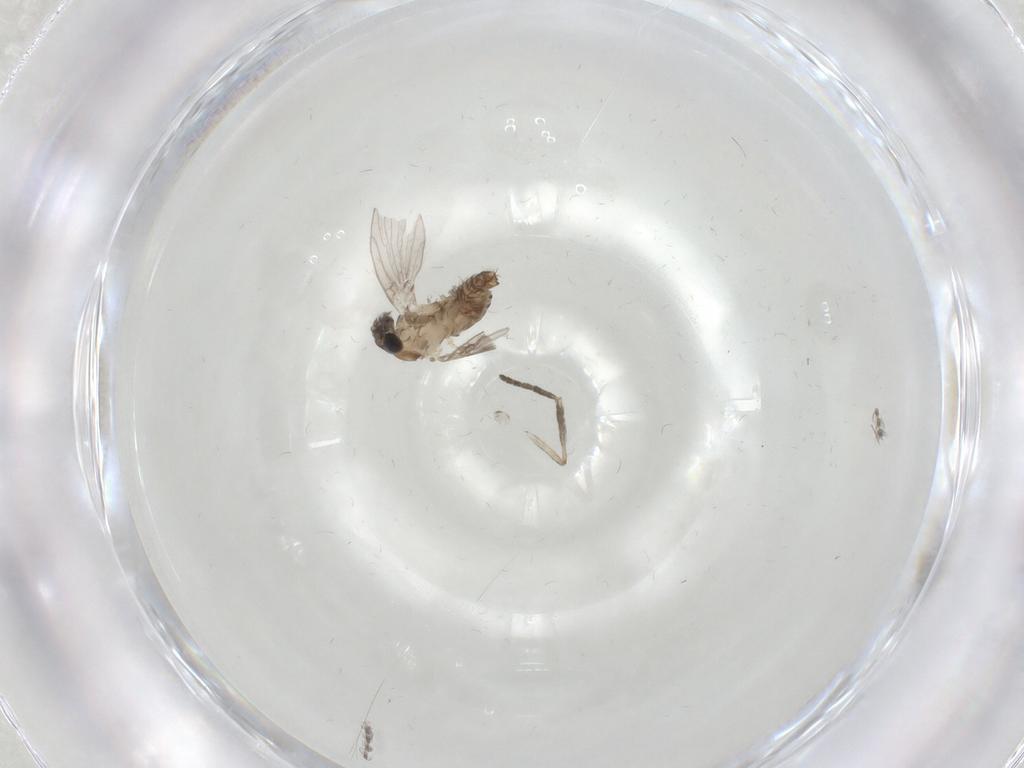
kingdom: Animalia
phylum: Arthropoda
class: Insecta
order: Diptera
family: Psychodidae
